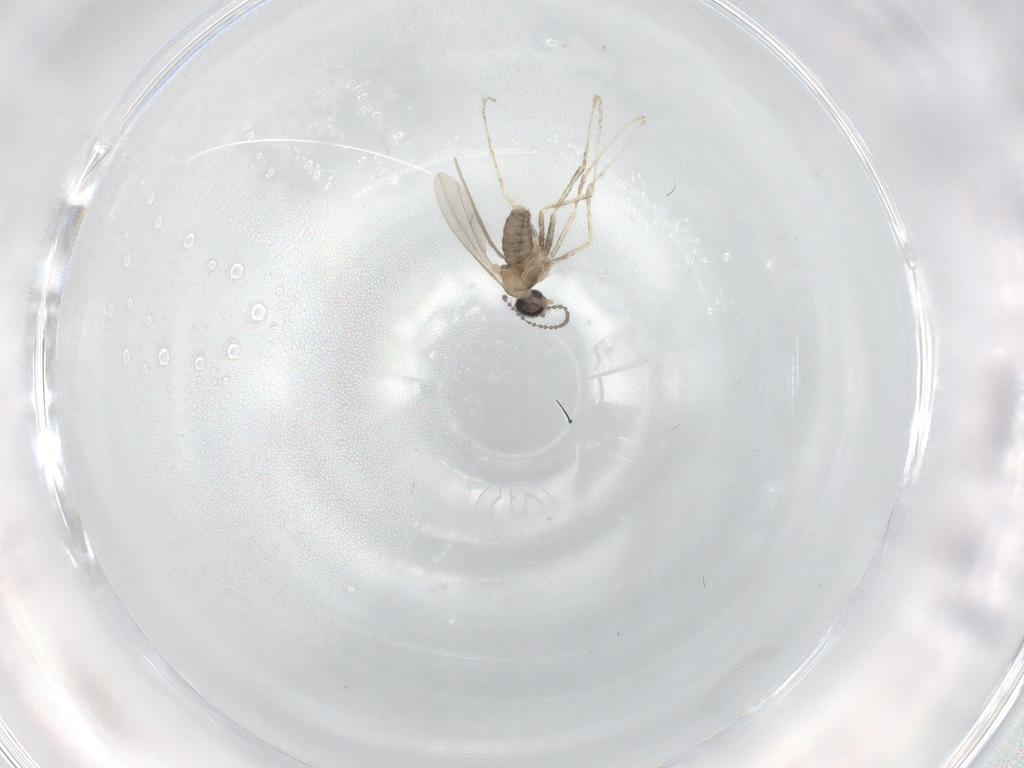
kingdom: Animalia
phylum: Arthropoda
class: Insecta
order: Diptera
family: Cecidomyiidae
